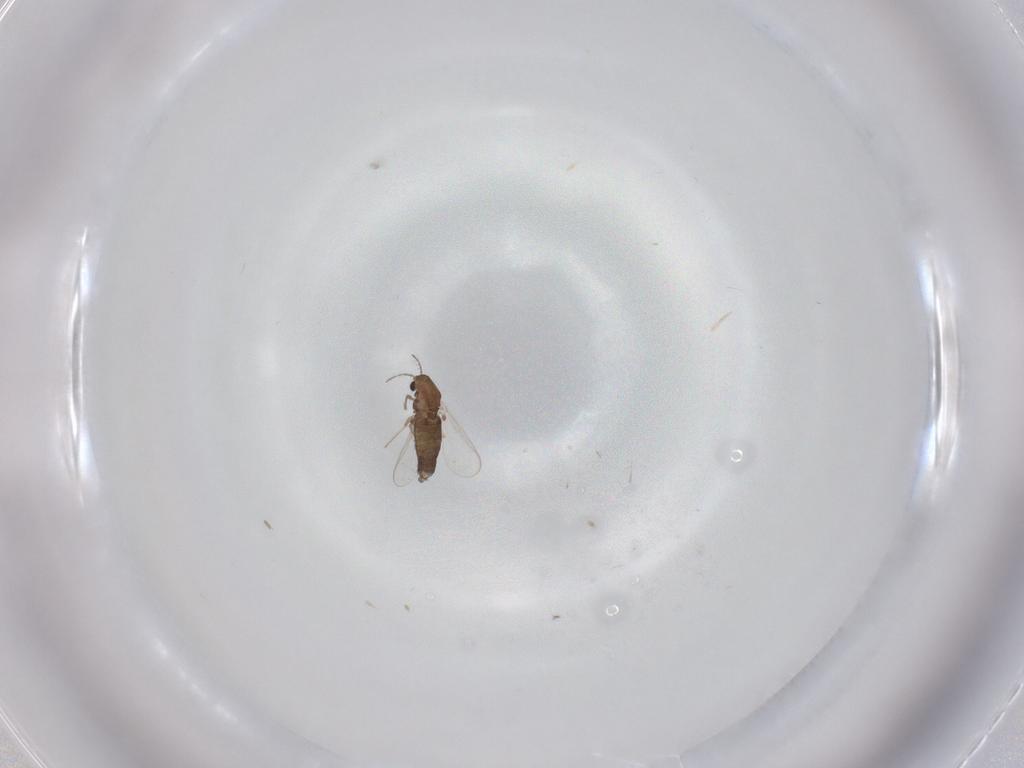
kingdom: Animalia
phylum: Arthropoda
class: Insecta
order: Diptera
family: Chironomidae
